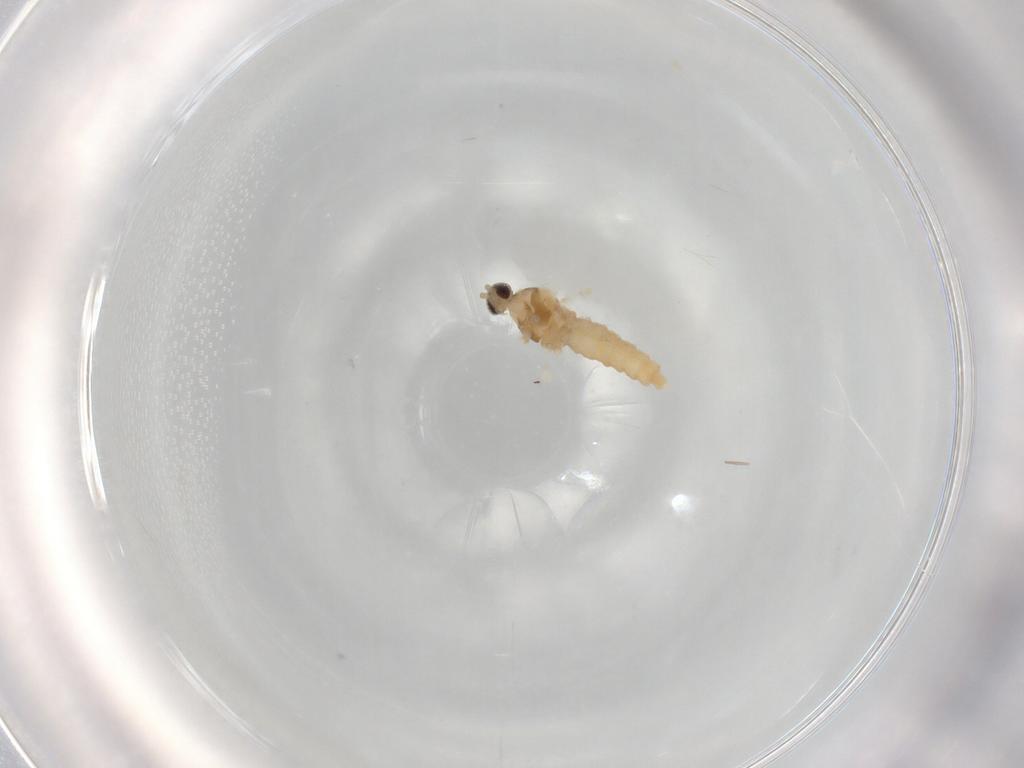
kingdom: Animalia
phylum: Arthropoda
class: Insecta
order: Diptera
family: Cecidomyiidae
